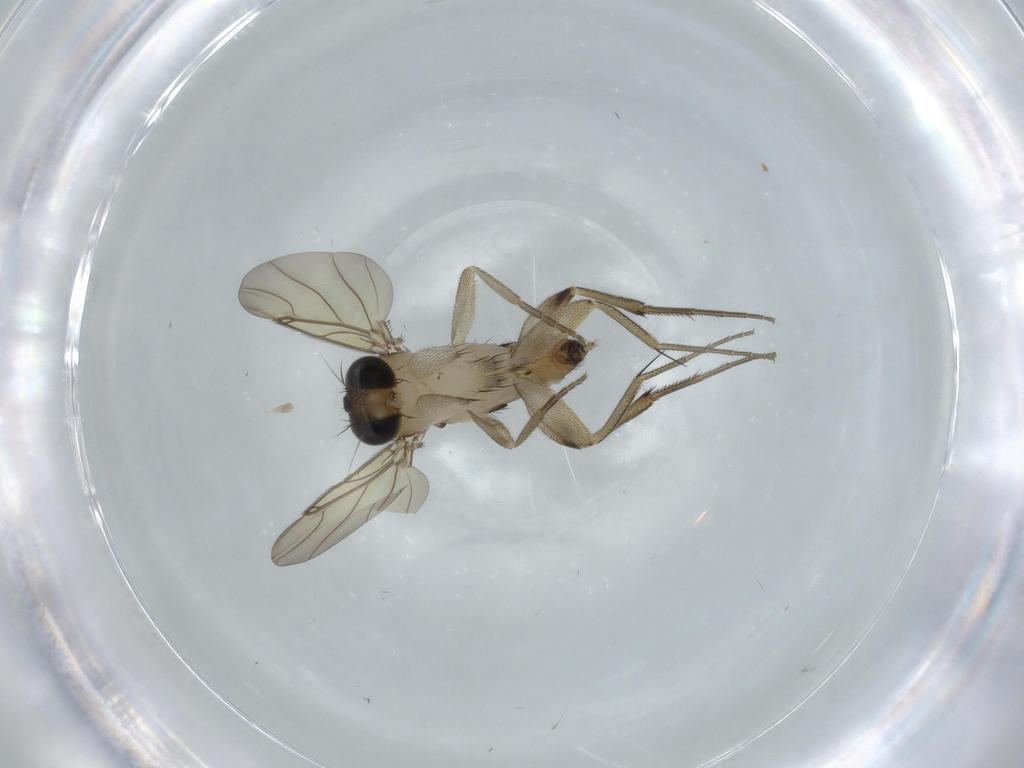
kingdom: Animalia
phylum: Arthropoda
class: Insecta
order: Diptera
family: Phoridae
